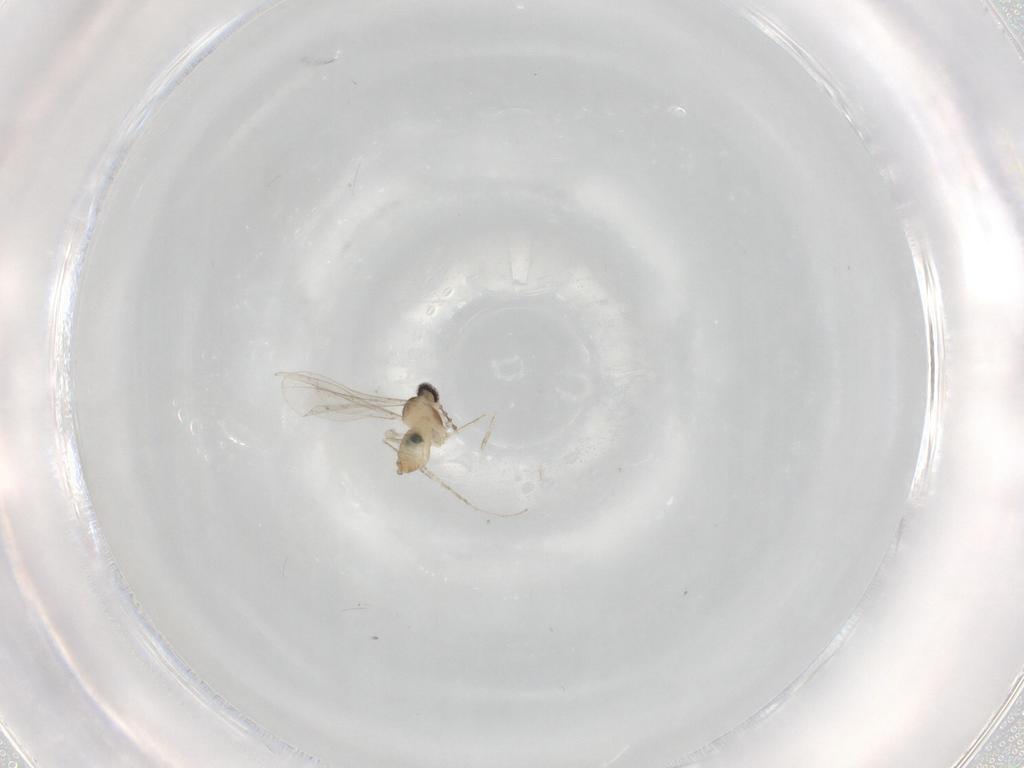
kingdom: Animalia
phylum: Arthropoda
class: Insecta
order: Diptera
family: Cecidomyiidae
